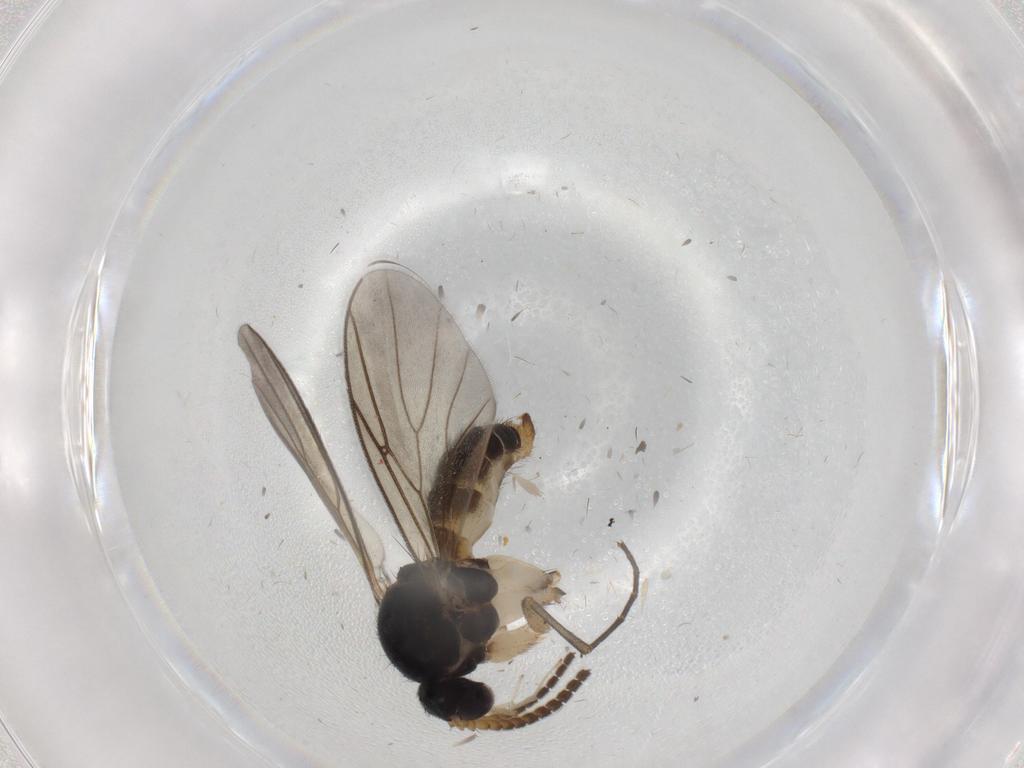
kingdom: Animalia
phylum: Arthropoda
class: Insecta
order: Diptera
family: Mycetophilidae
